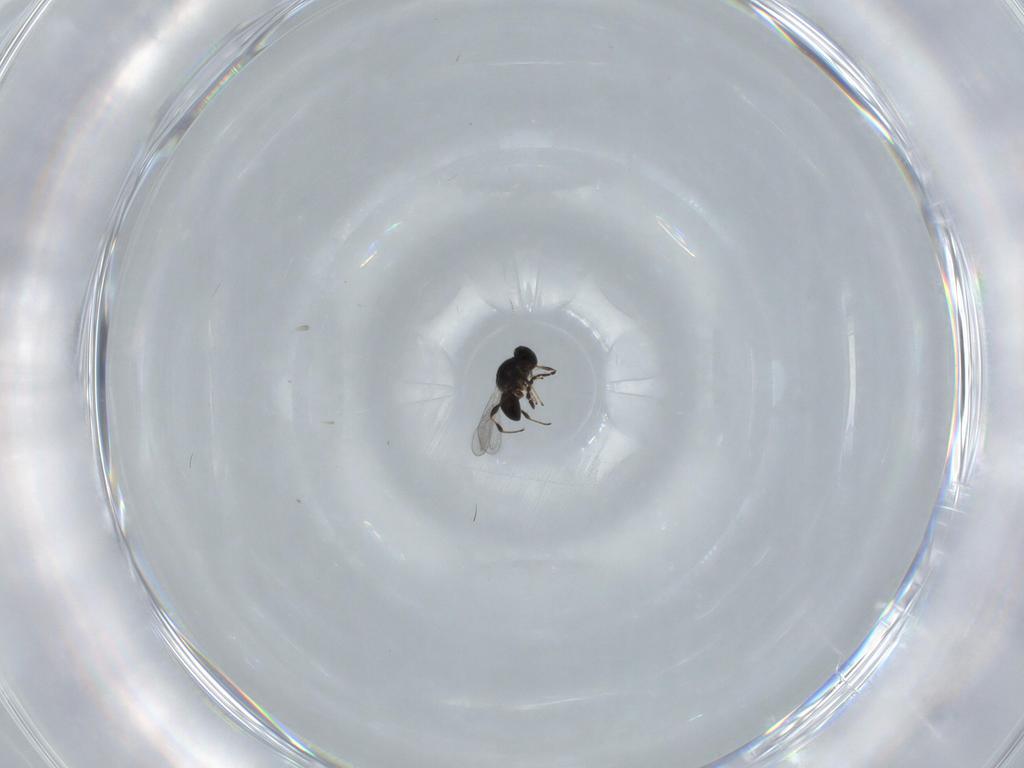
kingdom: Animalia
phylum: Arthropoda
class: Insecta
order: Hymenoptera
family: Platygastridae
